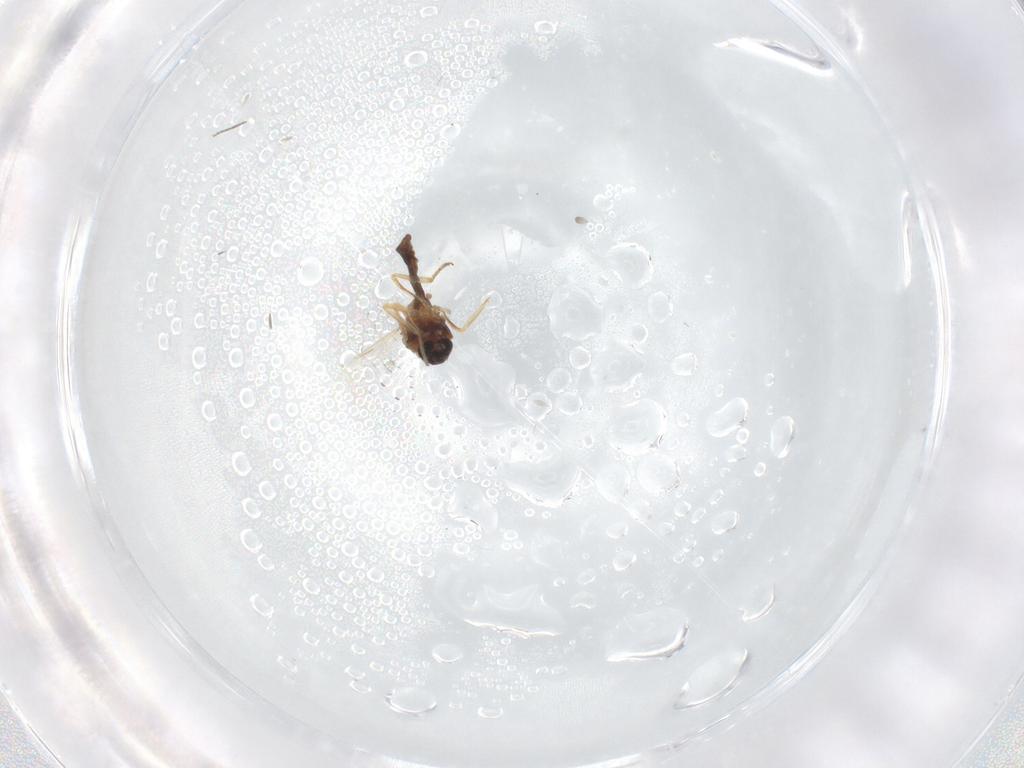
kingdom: Animalia
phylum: Arthropoda
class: Insecta
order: Diptera
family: Ceratopogonidae
